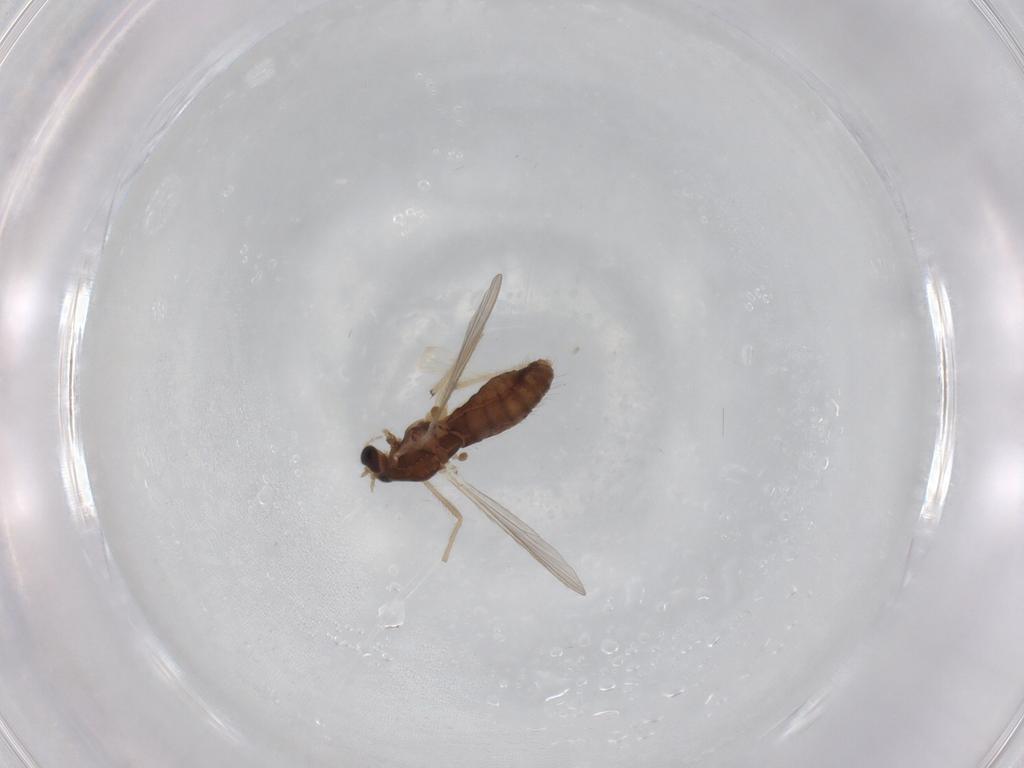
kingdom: Animalia
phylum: Arthropoda
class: Insecta
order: Diptera
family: Chironomidae
